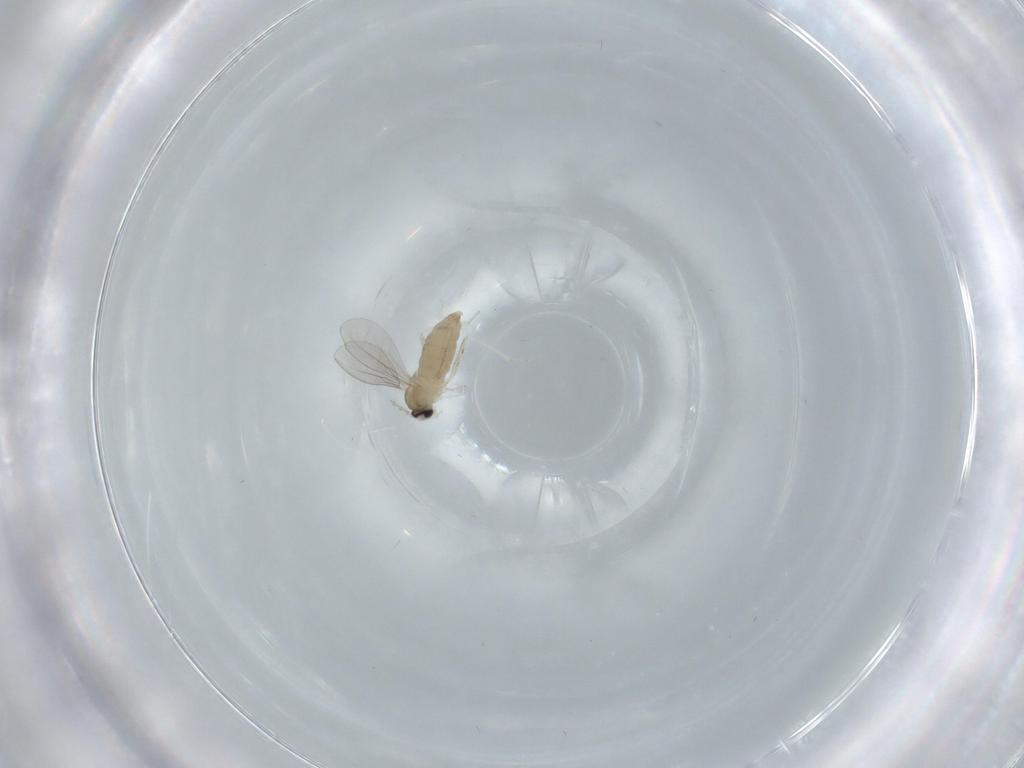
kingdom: Animalia
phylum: Arthropoda
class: Insecta
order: Diptera
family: Cecidomyiidae
